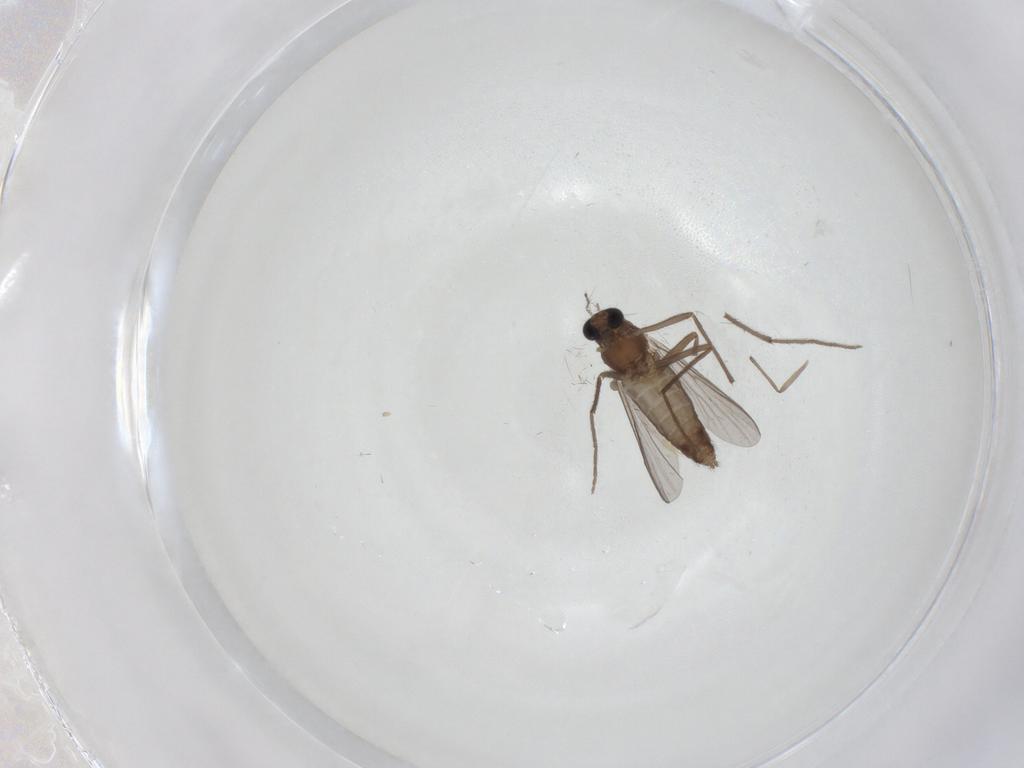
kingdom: Animalia
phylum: Arthropoda
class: Insecta
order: Diptera
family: Chironomidae
